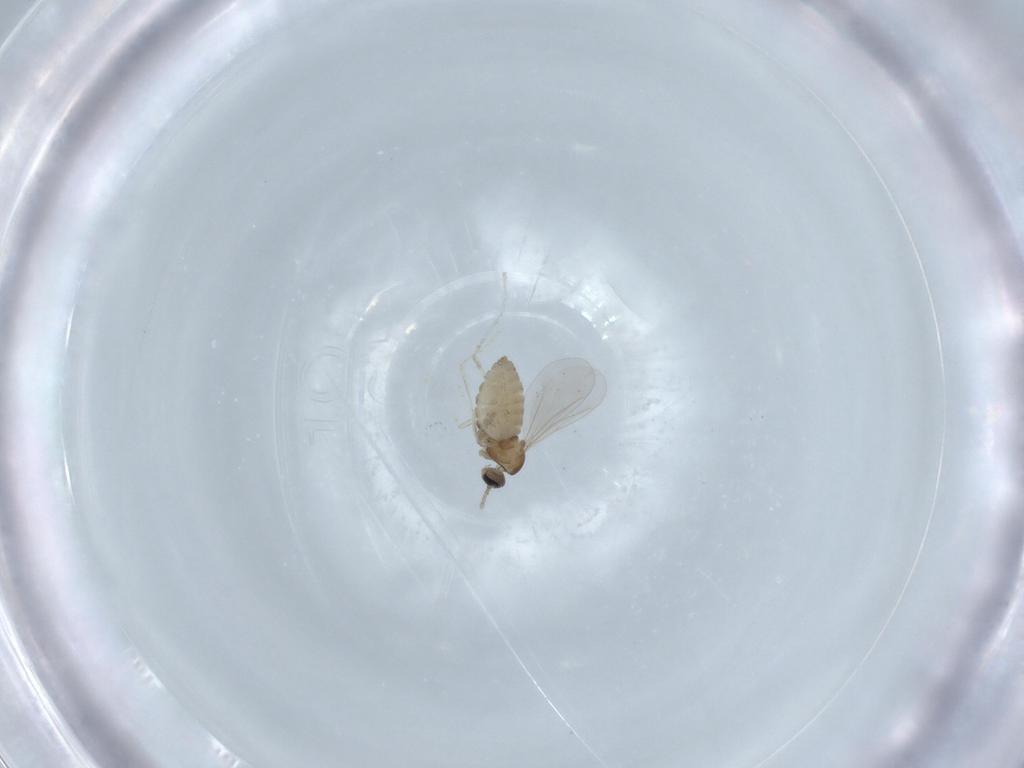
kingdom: Animalia
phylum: Arthropoda
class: Insecta
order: Diptera
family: Cecidomyiidae
